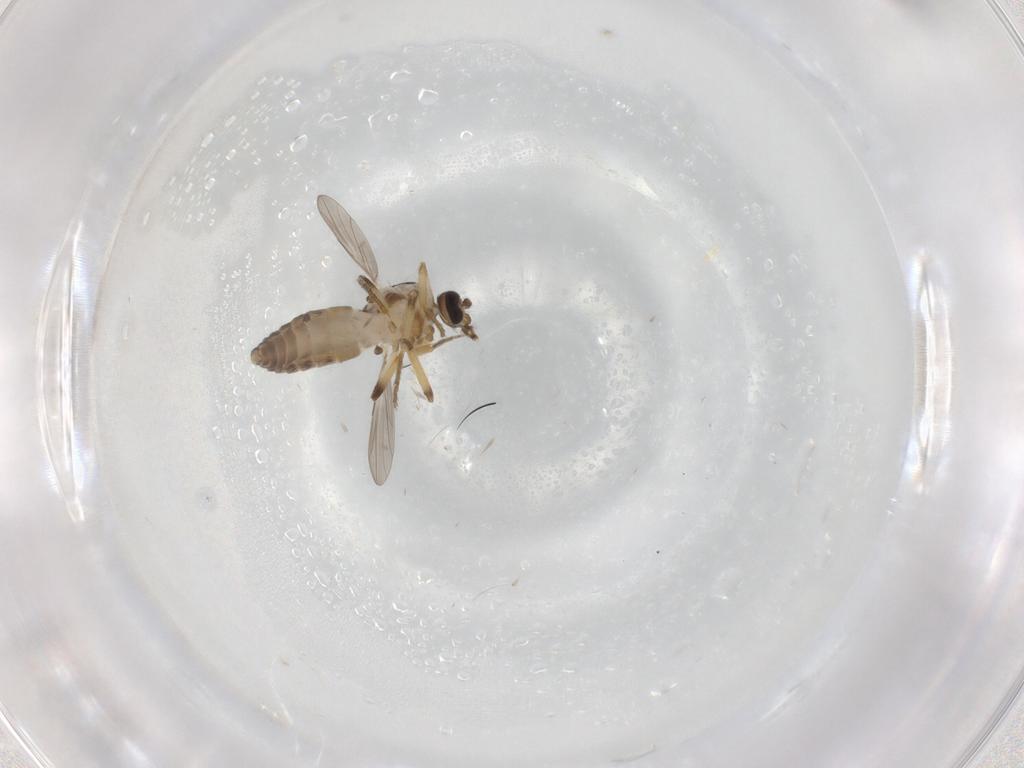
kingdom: Animalia
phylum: Arthropoda
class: Insecta
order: Diptera
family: Ceratopogonidae
